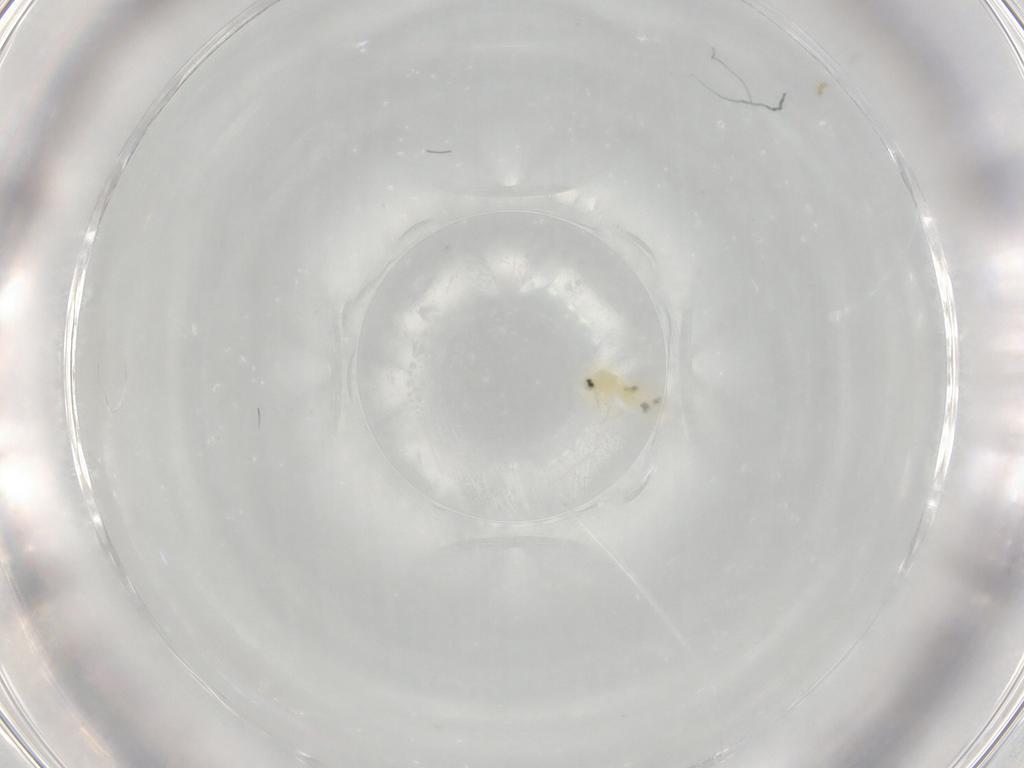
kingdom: Animalia
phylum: Arthropoda
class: Insecta
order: Hemiptera
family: Aleyrodidae
